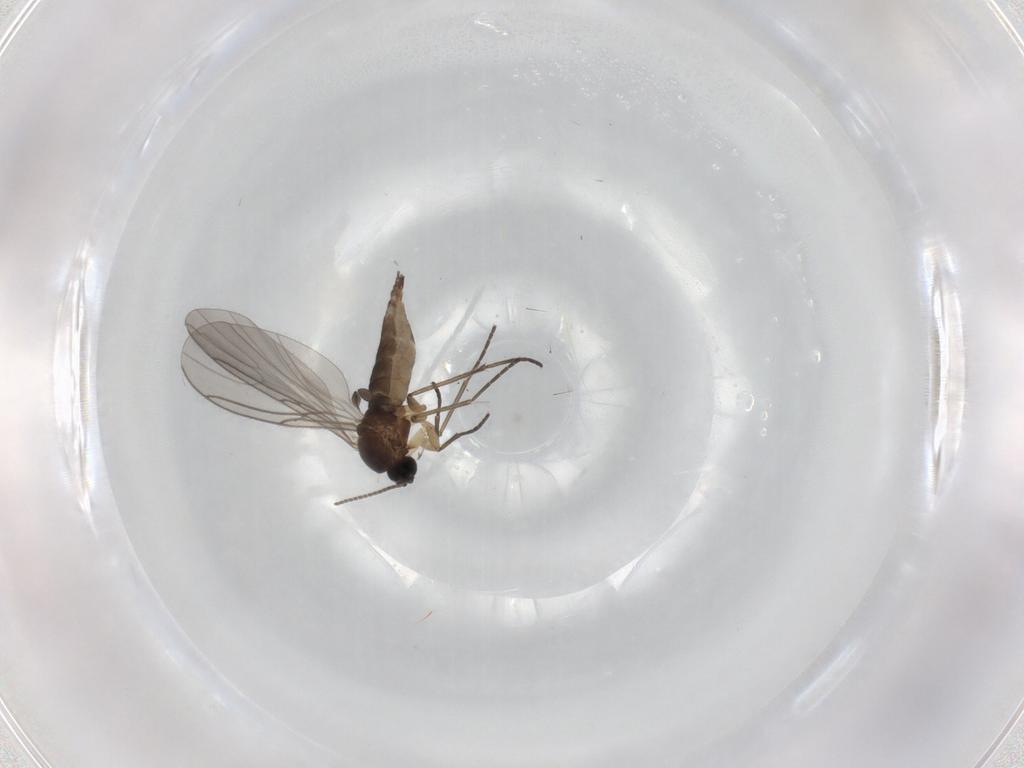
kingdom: Animalia
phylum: Arthropoda
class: Insecta
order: Diptera
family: Sciaridae
